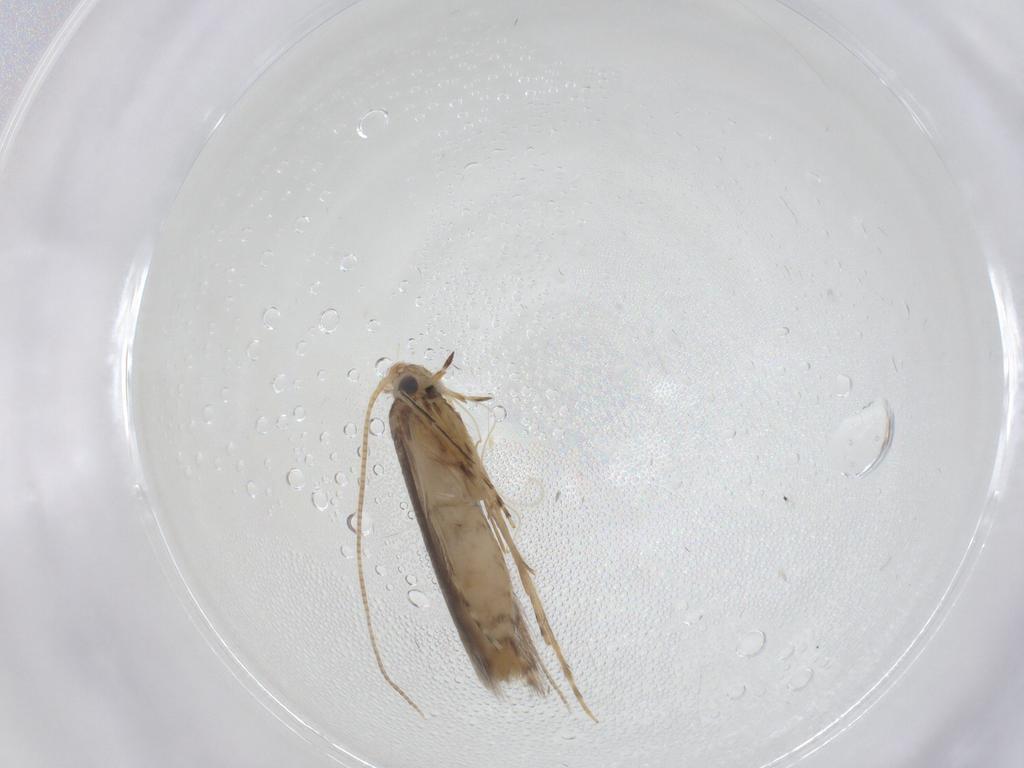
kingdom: Animalia
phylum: Arthropoda
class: Insecta
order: Lepidoptera
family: Gracillariidae
